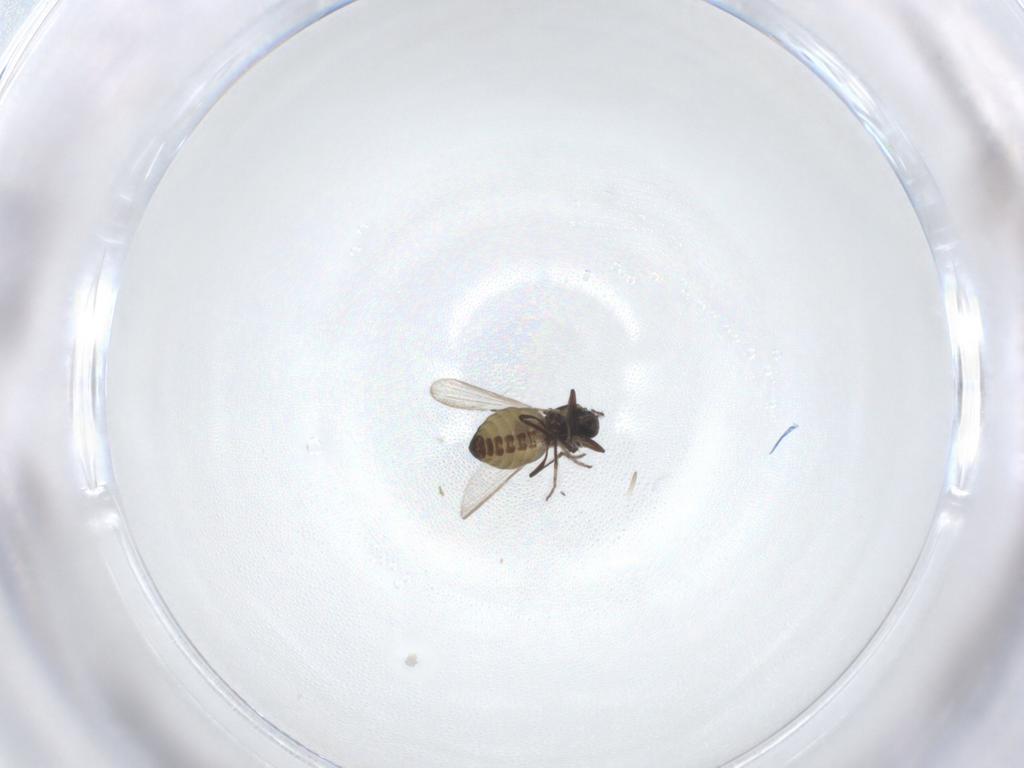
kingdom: Animalia
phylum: Arthropoda
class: Insecta
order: Diptera
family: Ceratopogonidae
